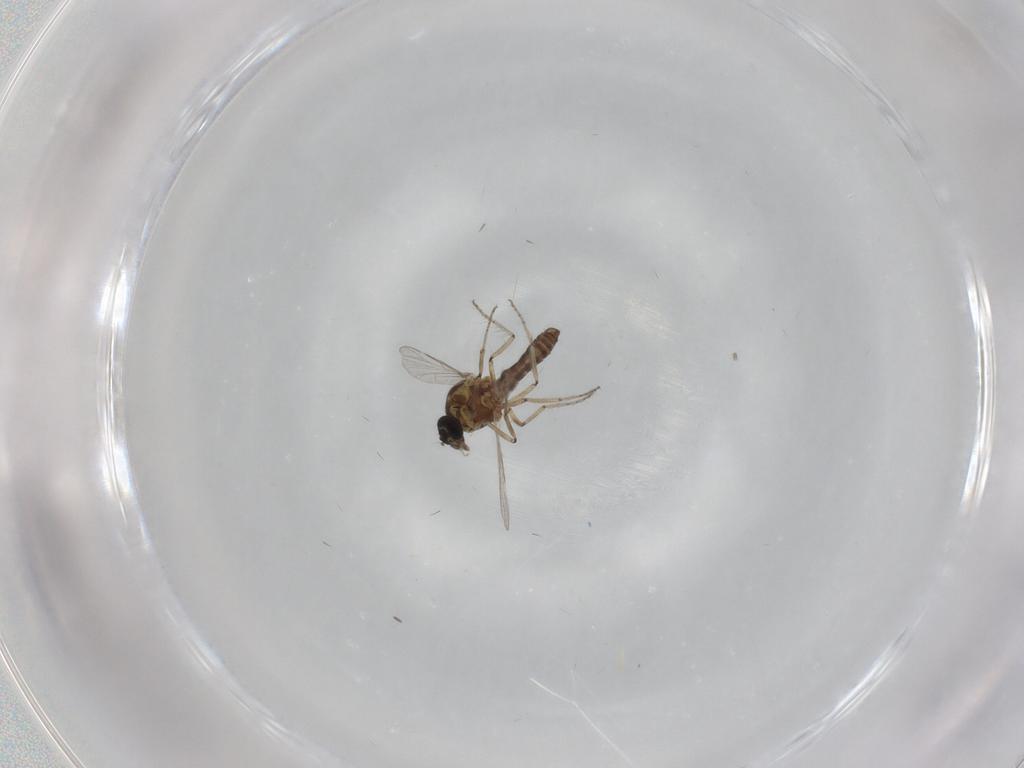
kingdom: Animalia
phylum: Arthropoda
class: Insecta
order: Diptera
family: Ceratopogonidae
